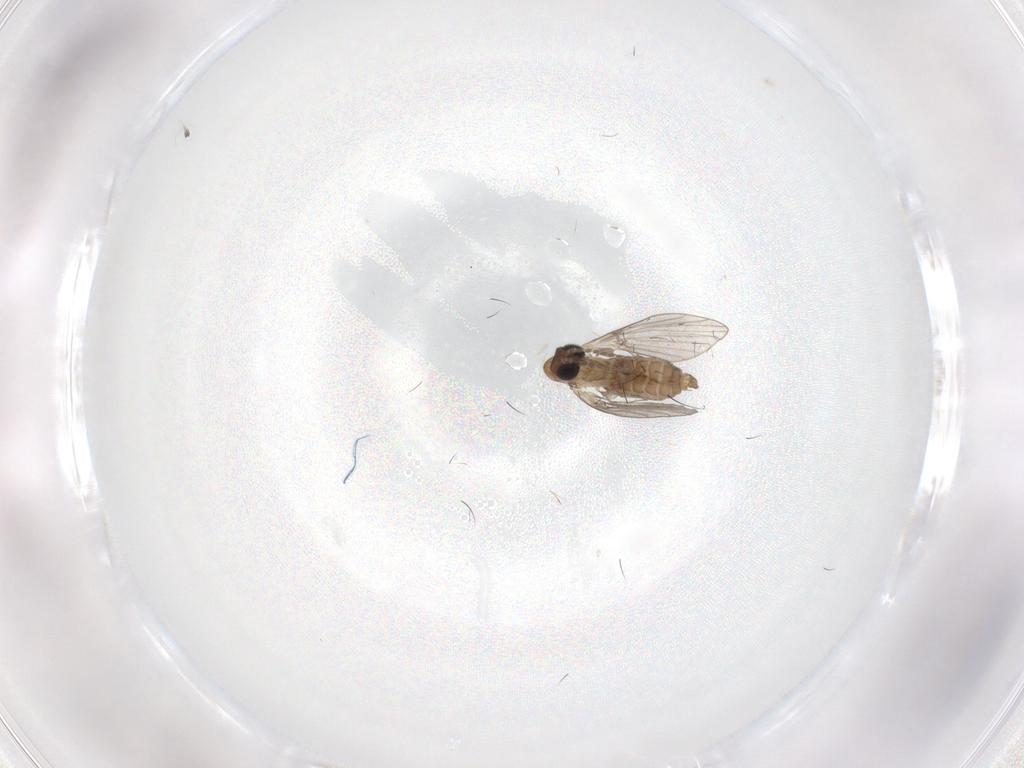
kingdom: Animalia
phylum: Arthropoda
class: Insecta
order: Diptera
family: Psychodidae
